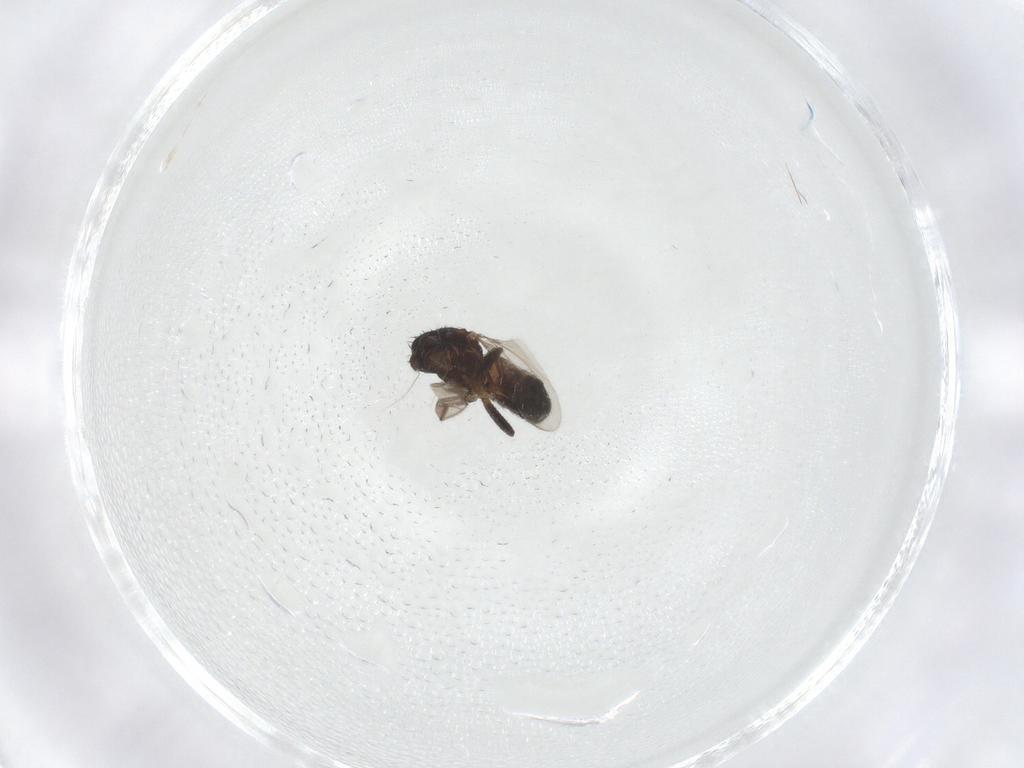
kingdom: Animalia
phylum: Arthropoda
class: Insecta
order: Diptera
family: Sphaeroceridae
